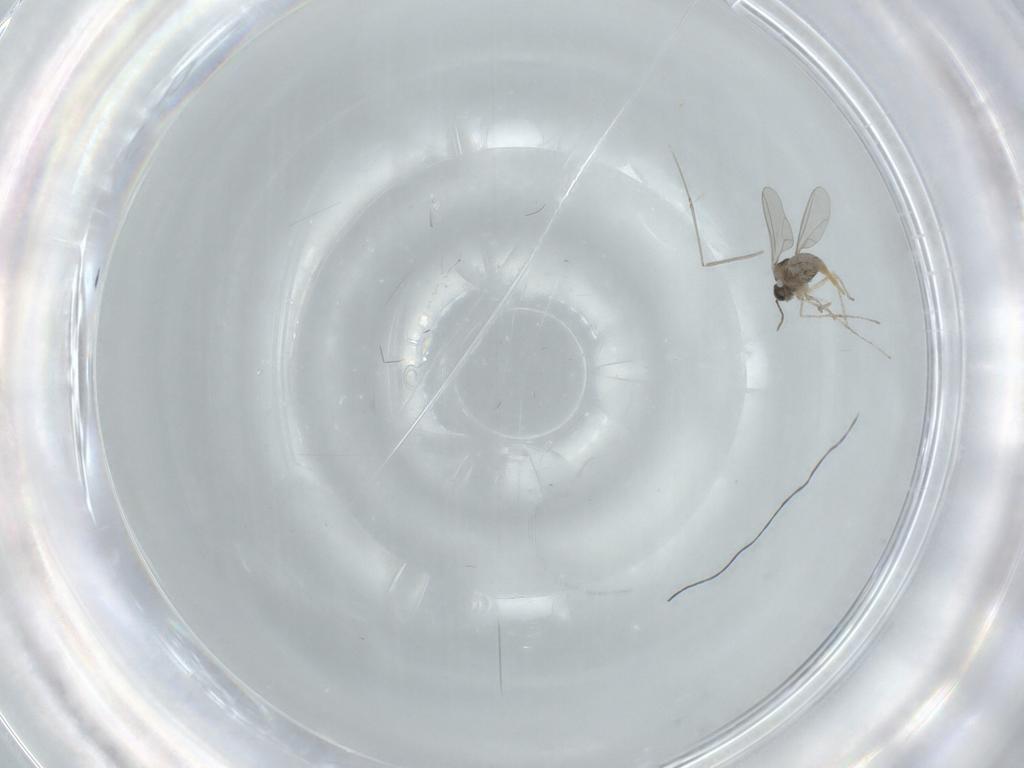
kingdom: Animalia
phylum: Arthropoda
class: Insecta
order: Diptera
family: Cecidomyiidae
